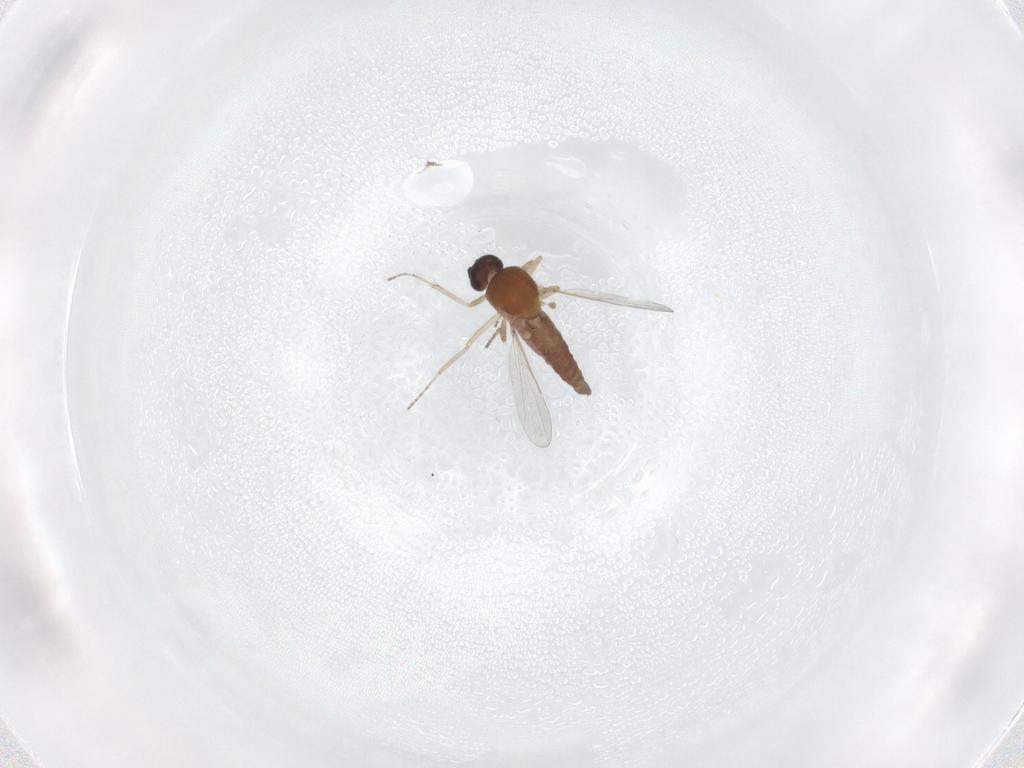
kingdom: Animalia
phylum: Arthropoda
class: Insecta
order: Diptera
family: Ceratopogonidae
